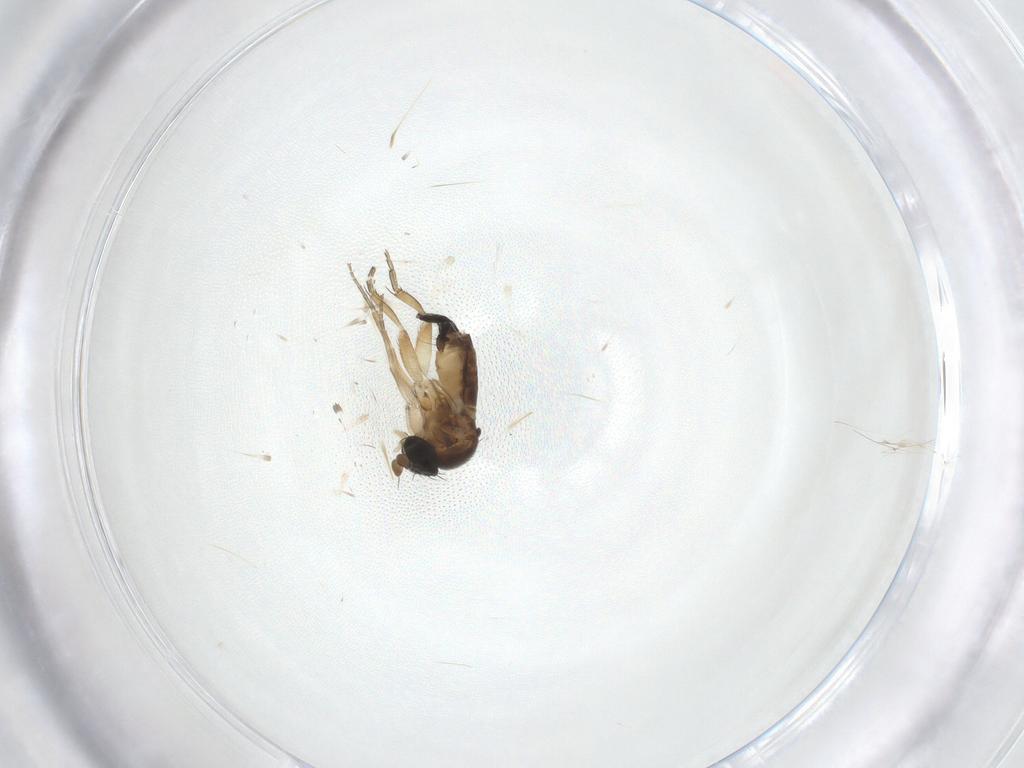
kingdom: Animalia
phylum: Arthropoda
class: Insecta
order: Diptera
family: Phoridae
